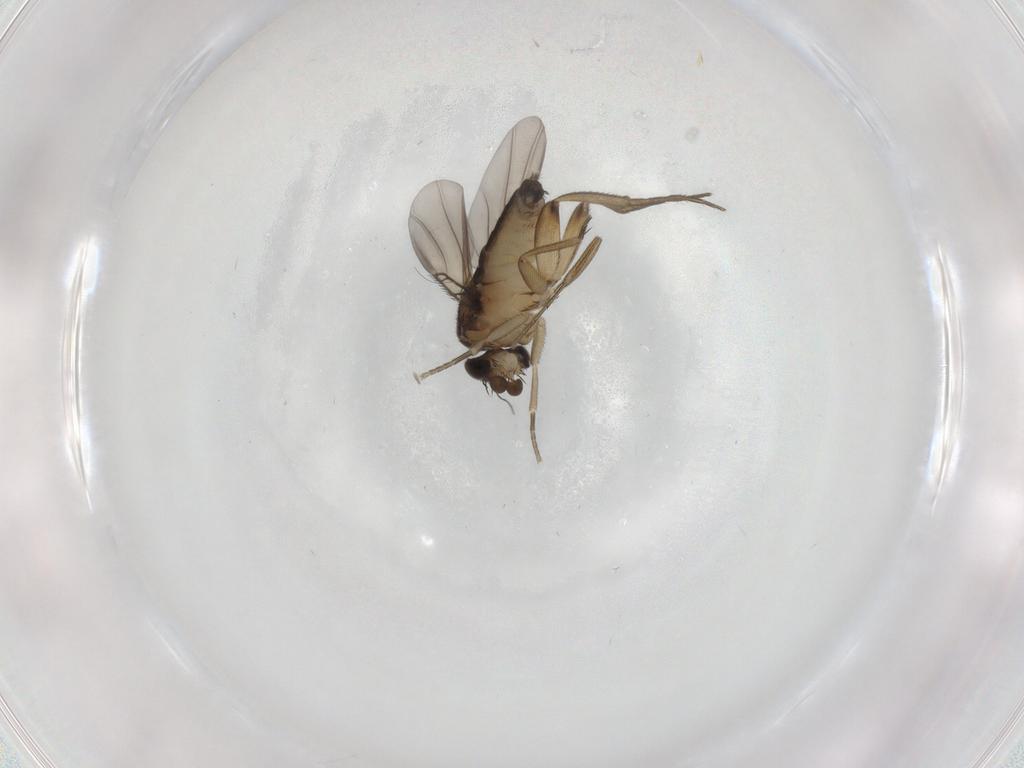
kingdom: Animalia
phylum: Arthropoda
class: Insecta
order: Diptera
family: Phoridae
